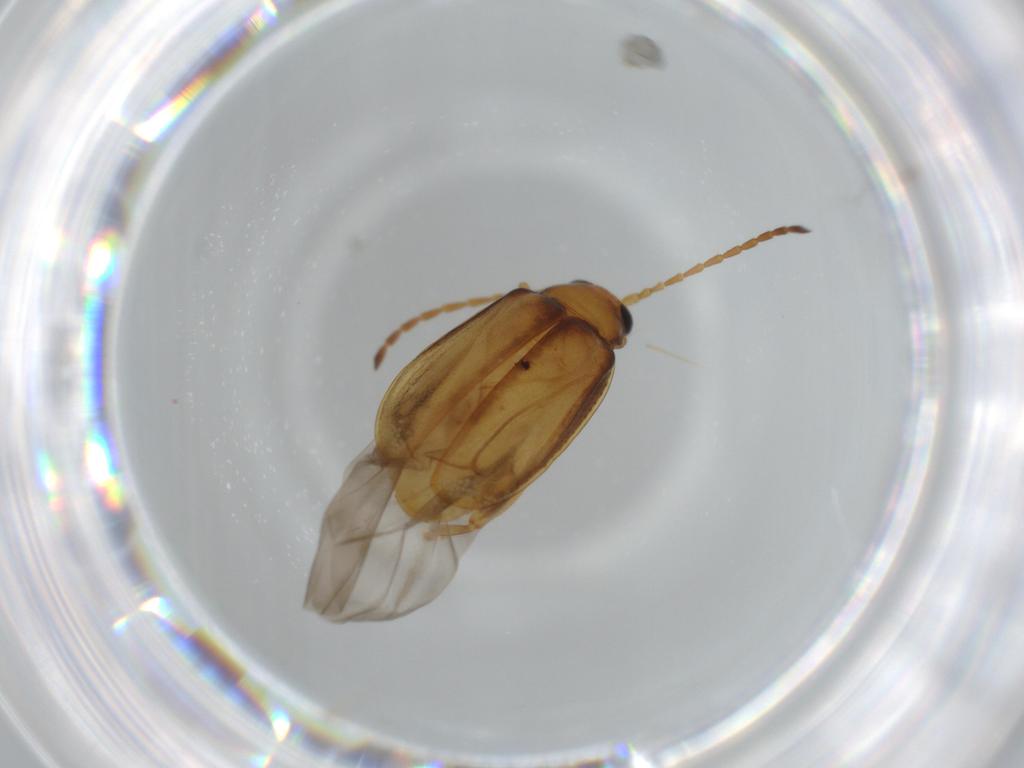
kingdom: Animalia
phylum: Arthropoda
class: Insecta
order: Coleoptera
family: Chrysomelidae
